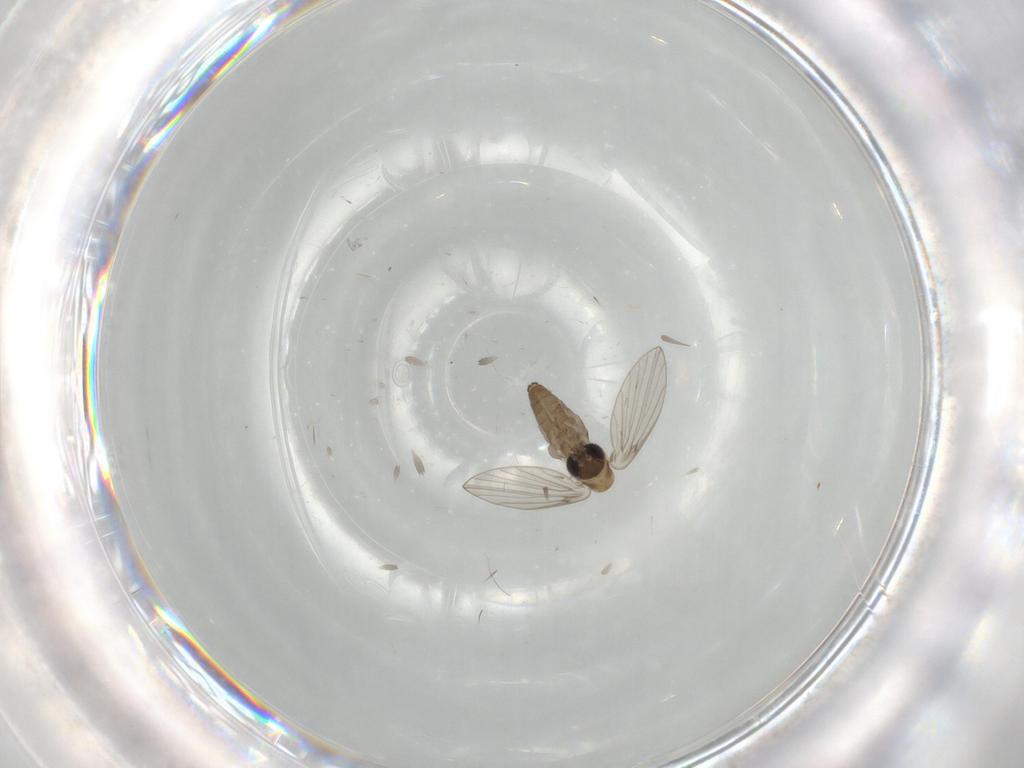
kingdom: Animalia
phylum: Arthropoda
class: Insecta
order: Diptera
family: Psychodidae
